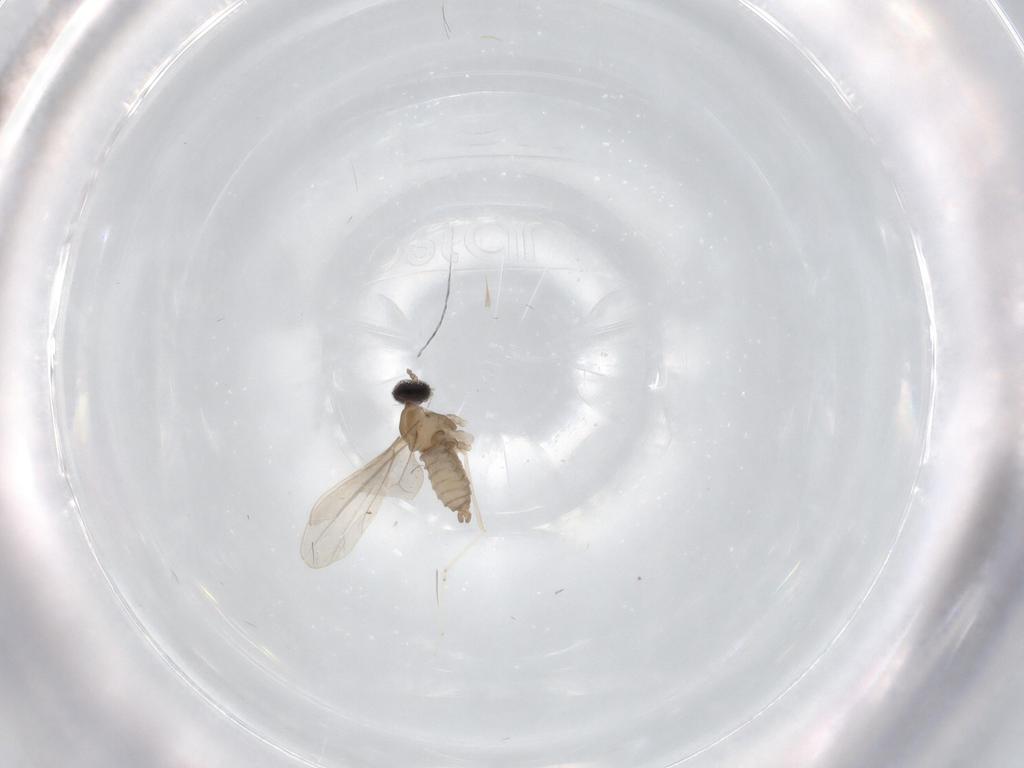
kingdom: Animalia
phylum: Arthropoda
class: Insecta
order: Diptera
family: Cecidomyiidae
